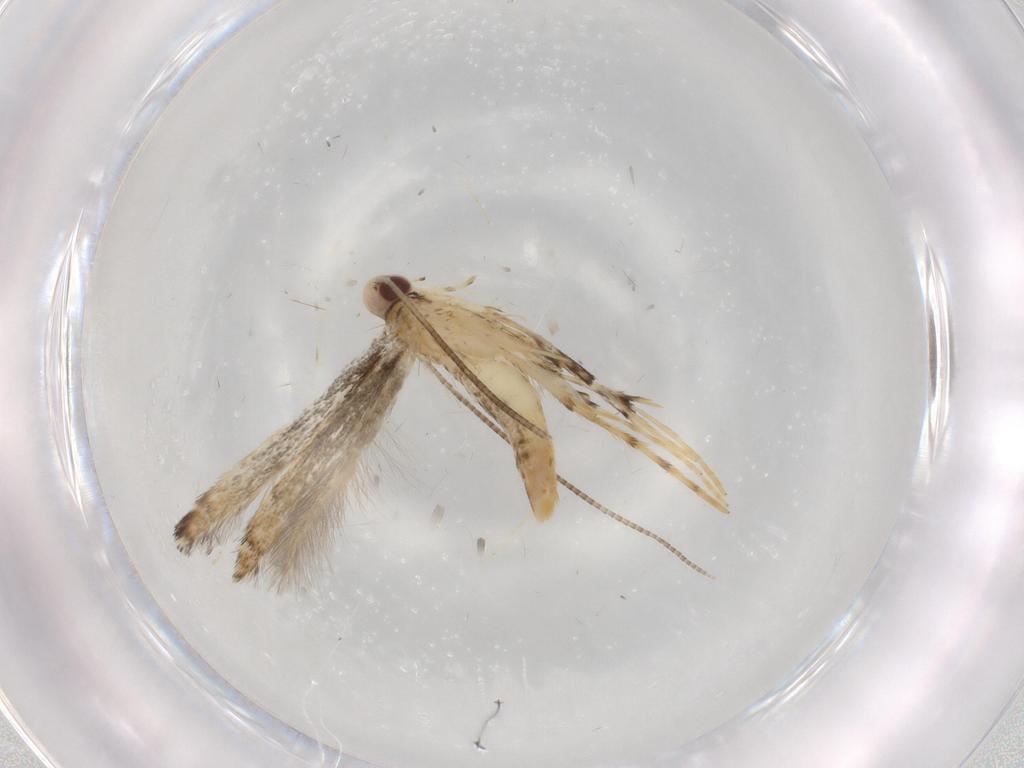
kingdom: Animalia
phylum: Arthropoda
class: Insecta
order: Lepidoptera
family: Gracillariidae
